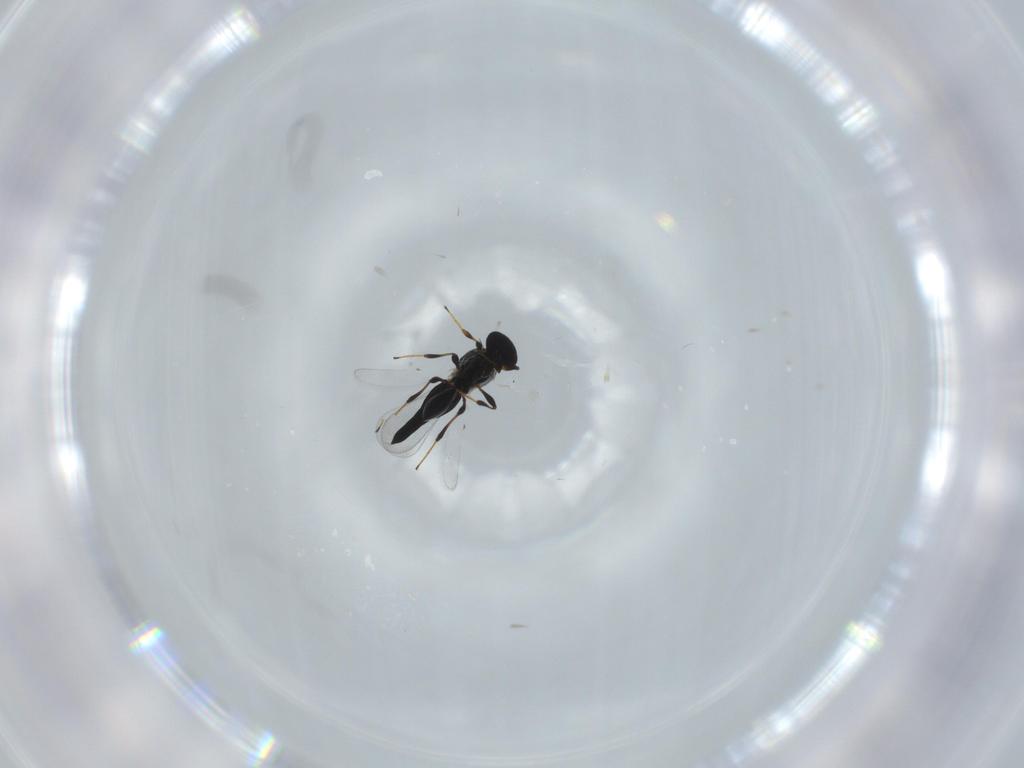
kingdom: Animalia
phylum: Arthropoda
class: Insecta
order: Hymenoptera
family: Platygastridae
